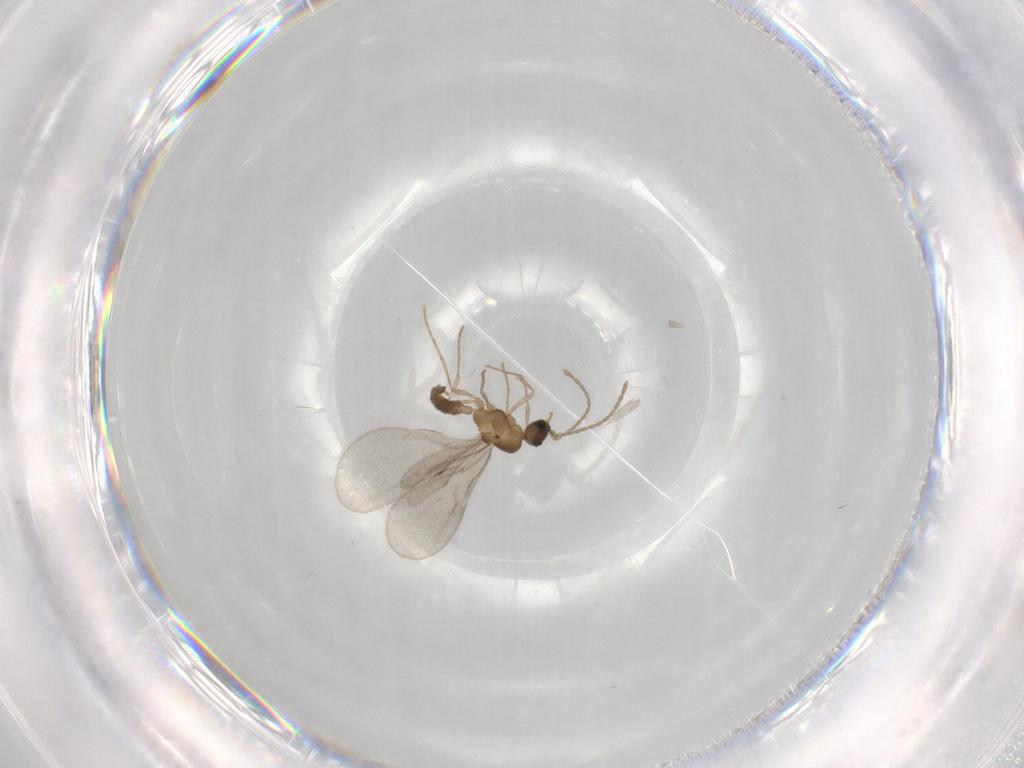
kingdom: Animalia
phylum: Arthropoda
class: Insecta
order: Hymenoptera
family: Formicidae
